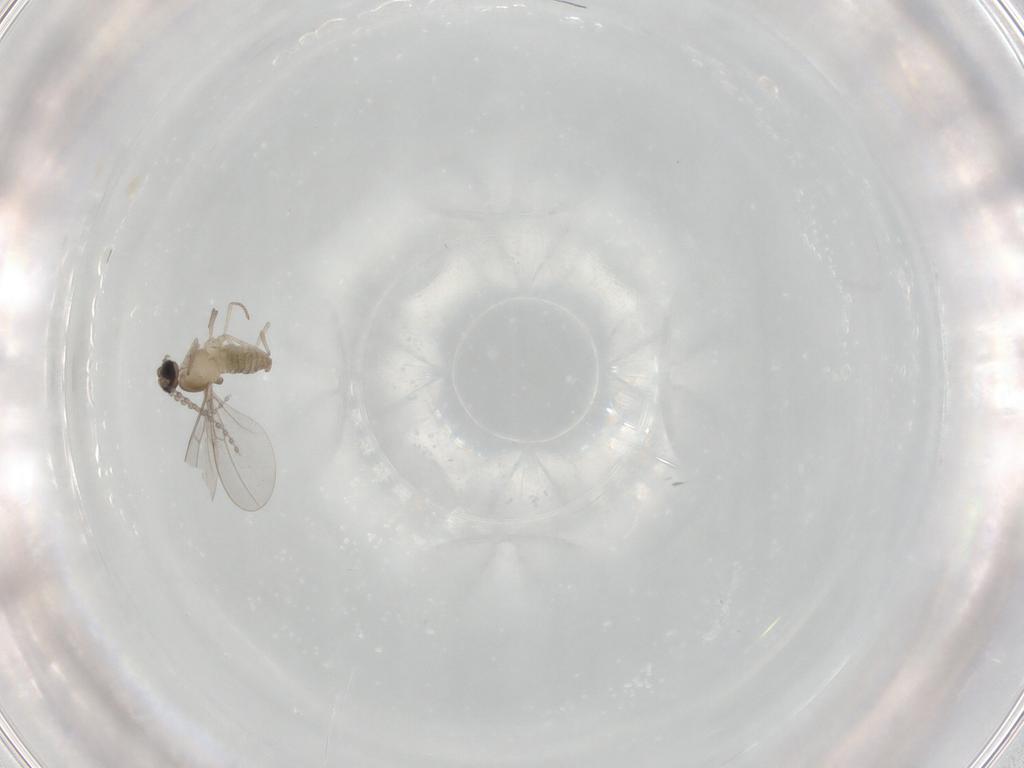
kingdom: Animalia
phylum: Arthropoda
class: Insecta
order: Diptera
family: Cecidomyiidae
